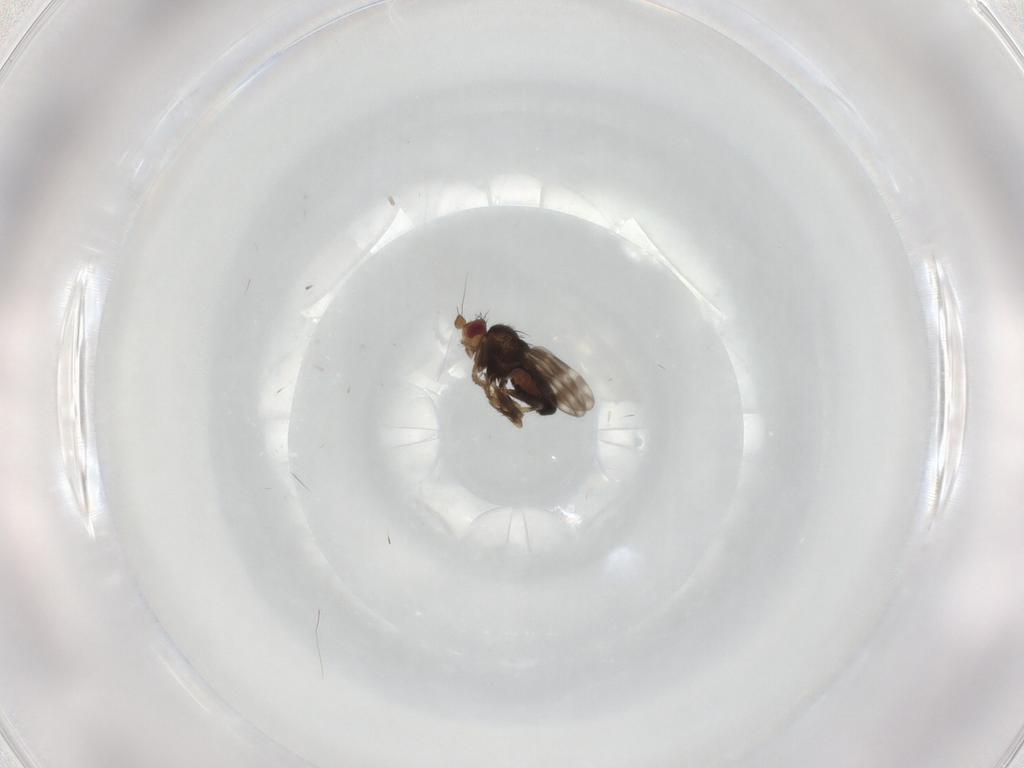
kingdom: Animalia
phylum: Arthropoda
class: Insecta
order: Diptera
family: Sphaeroceridae
